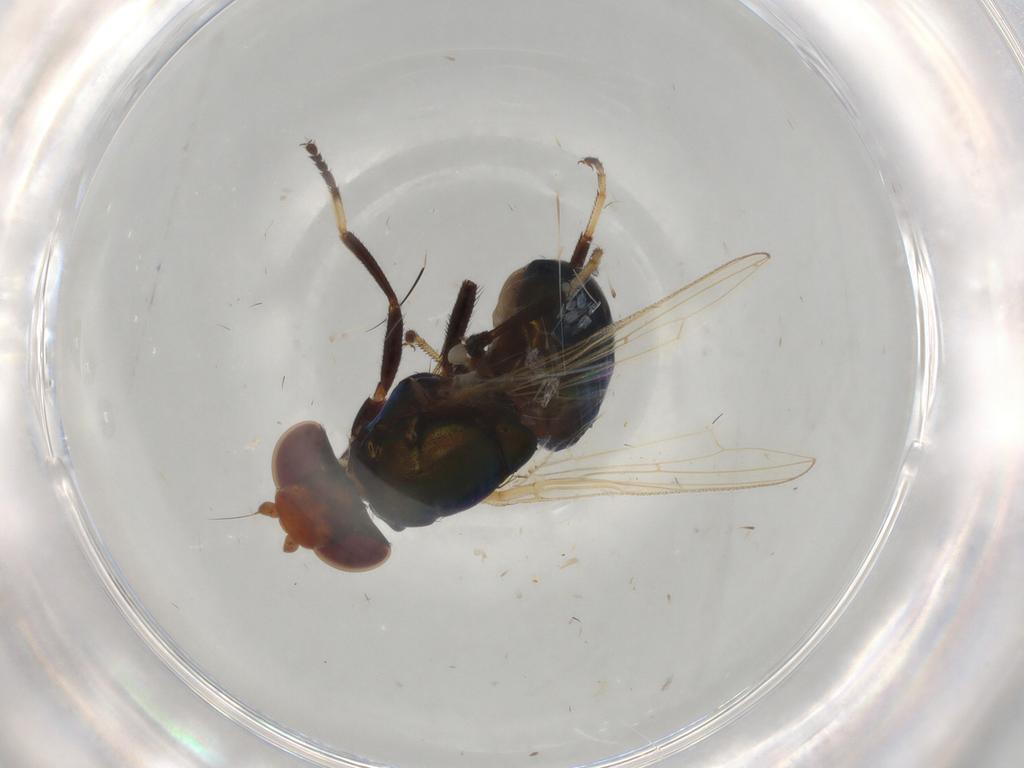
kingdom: Animalia
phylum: Arthropoda
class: Insecta
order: Diptera
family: Ulidiidae
